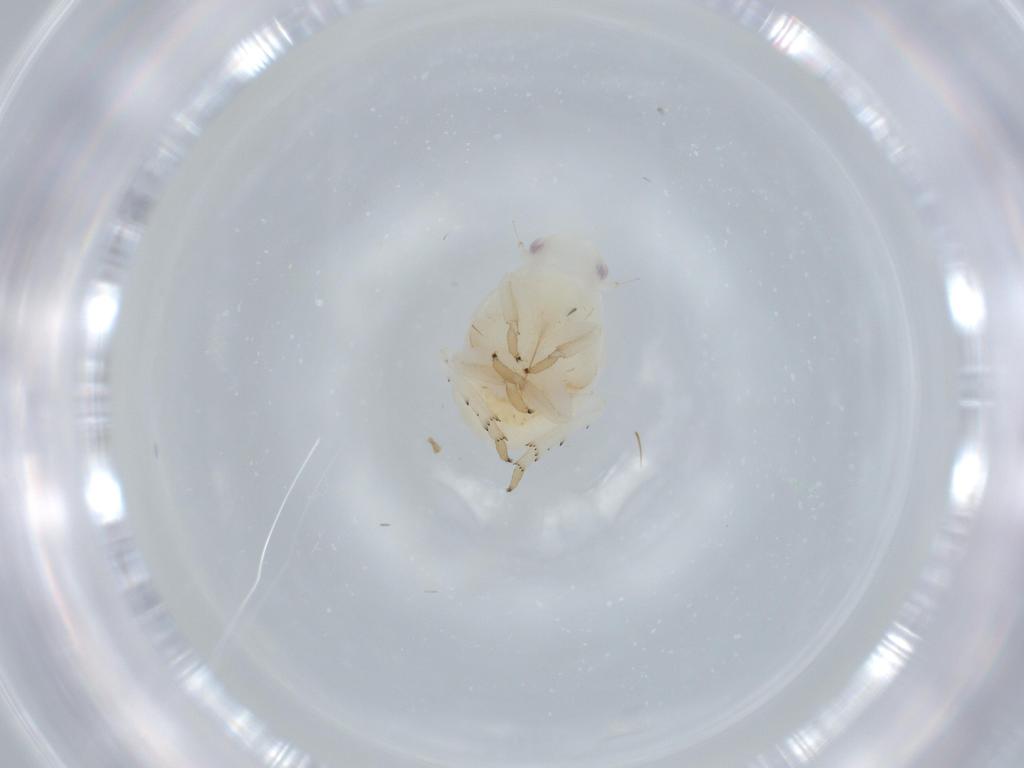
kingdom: Animalia
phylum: Arthropoda
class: Insecta
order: Hemiptera
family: Flatidae
